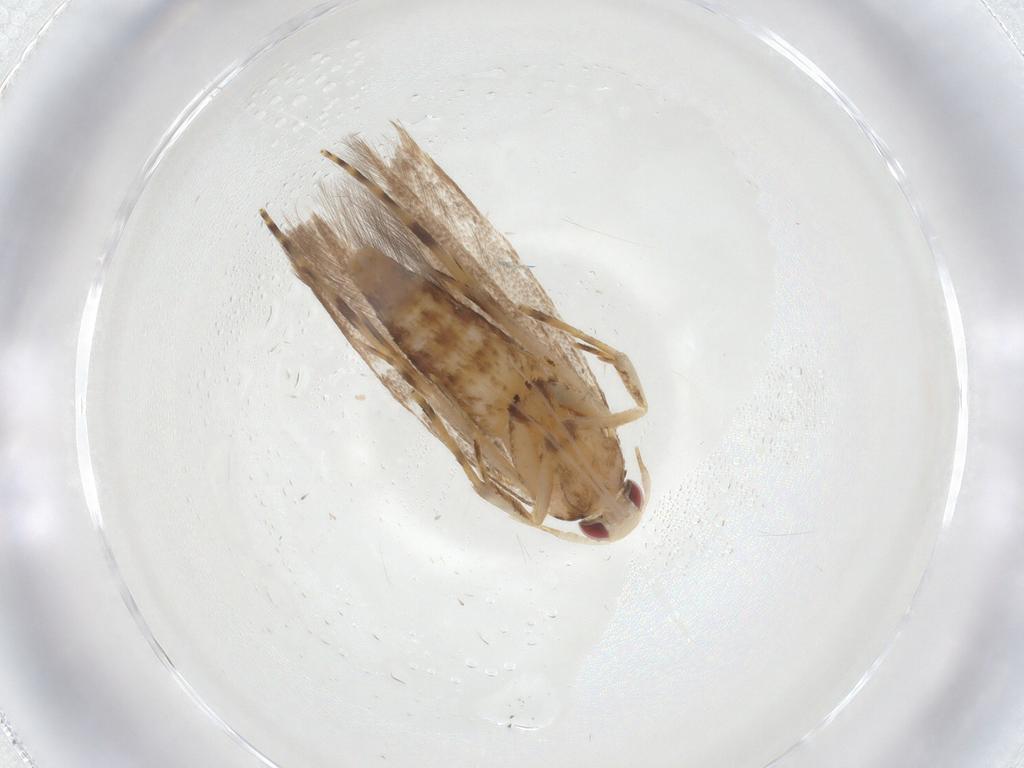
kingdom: Animalia
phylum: Arthropoda
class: Insecta
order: Lepidoptera
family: Cosmopterigidae
